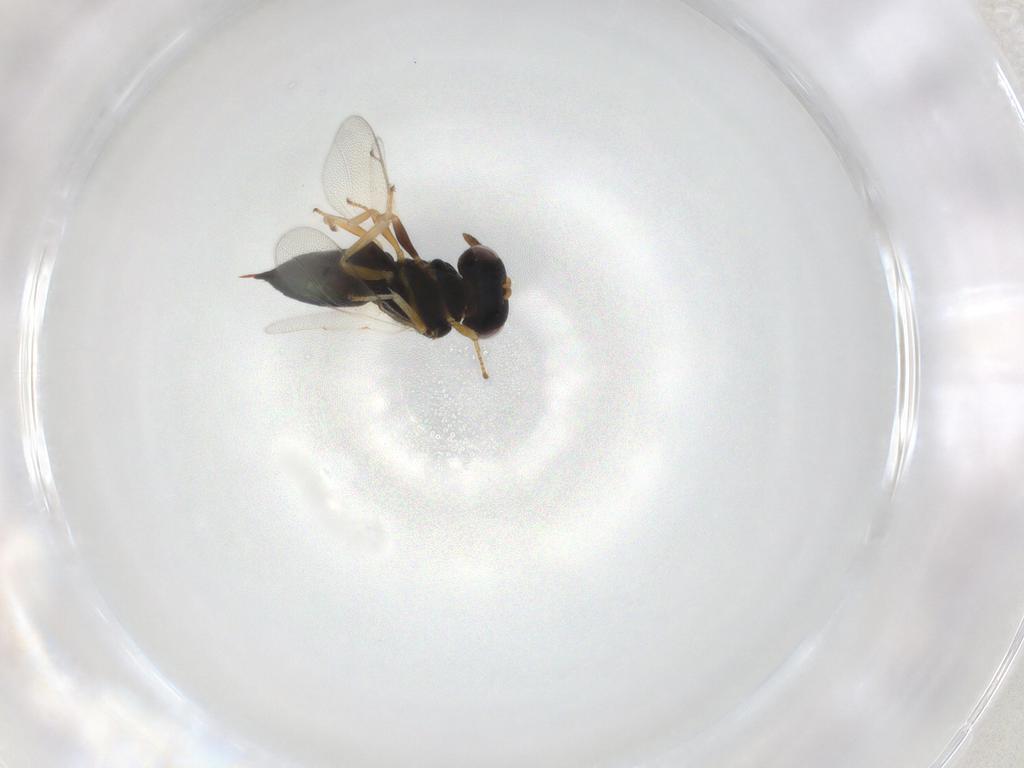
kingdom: Animalia
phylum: Arthropoda
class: Insecta
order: Hymenoptera
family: Pteromalidae
